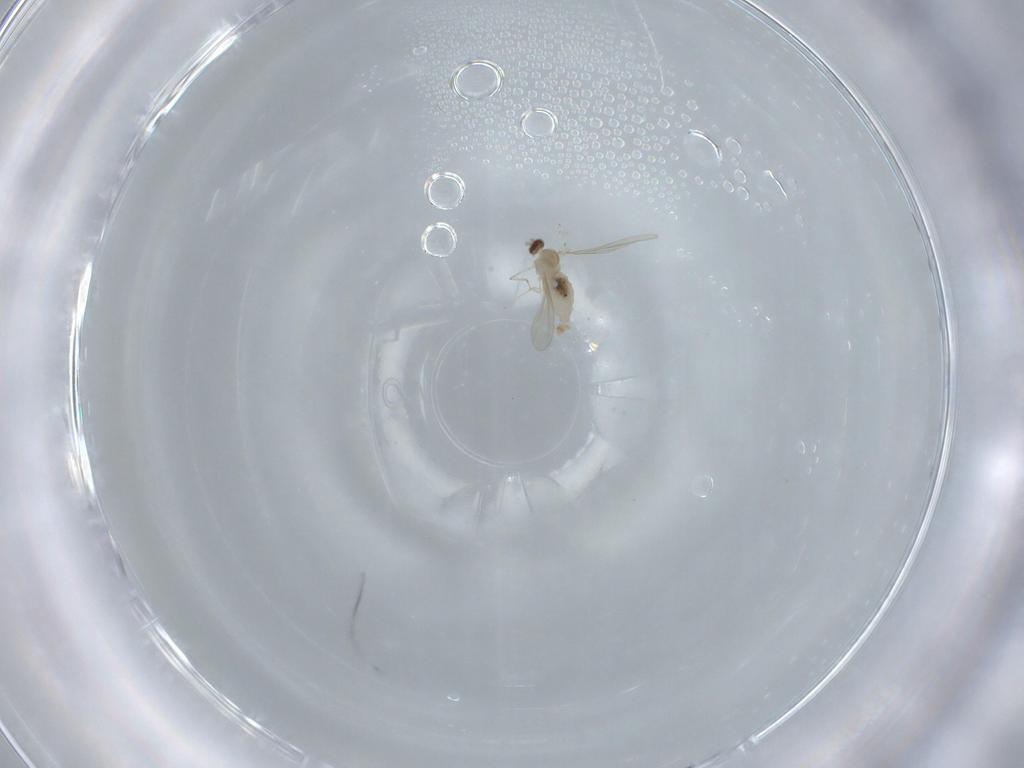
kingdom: Animalia
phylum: Arthropoda
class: Insecta
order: Diptera
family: Cecidomyiidae
